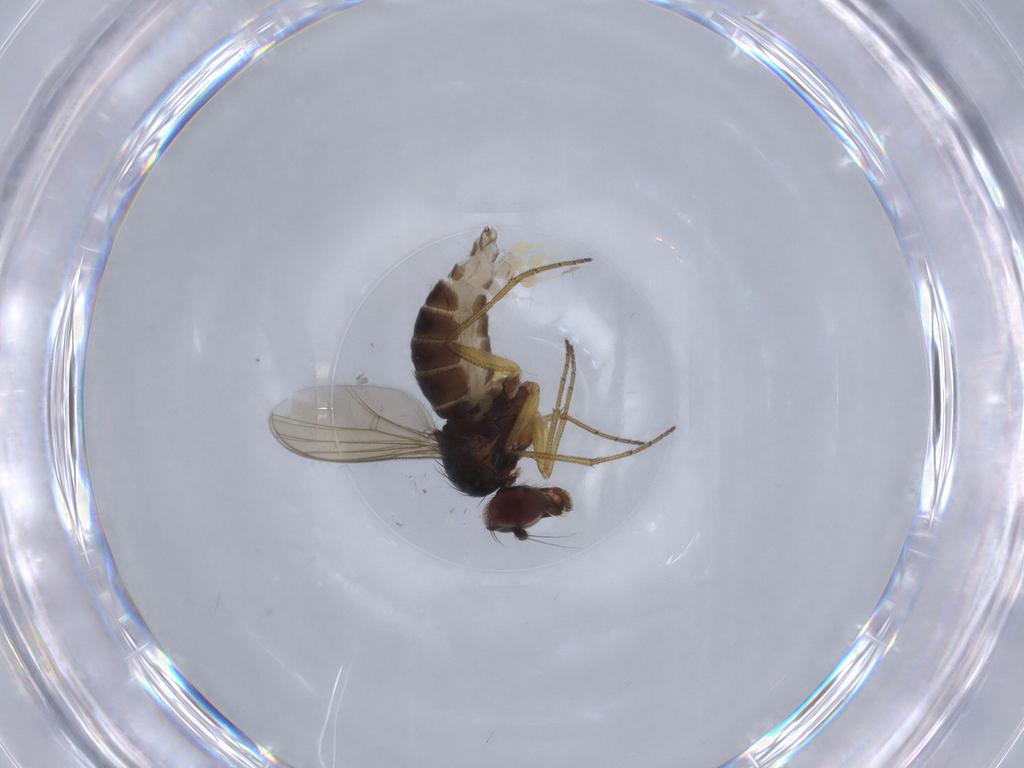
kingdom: Animalia
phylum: Arthropoda
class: Insecta
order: Diptera
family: Dolichopodidae
